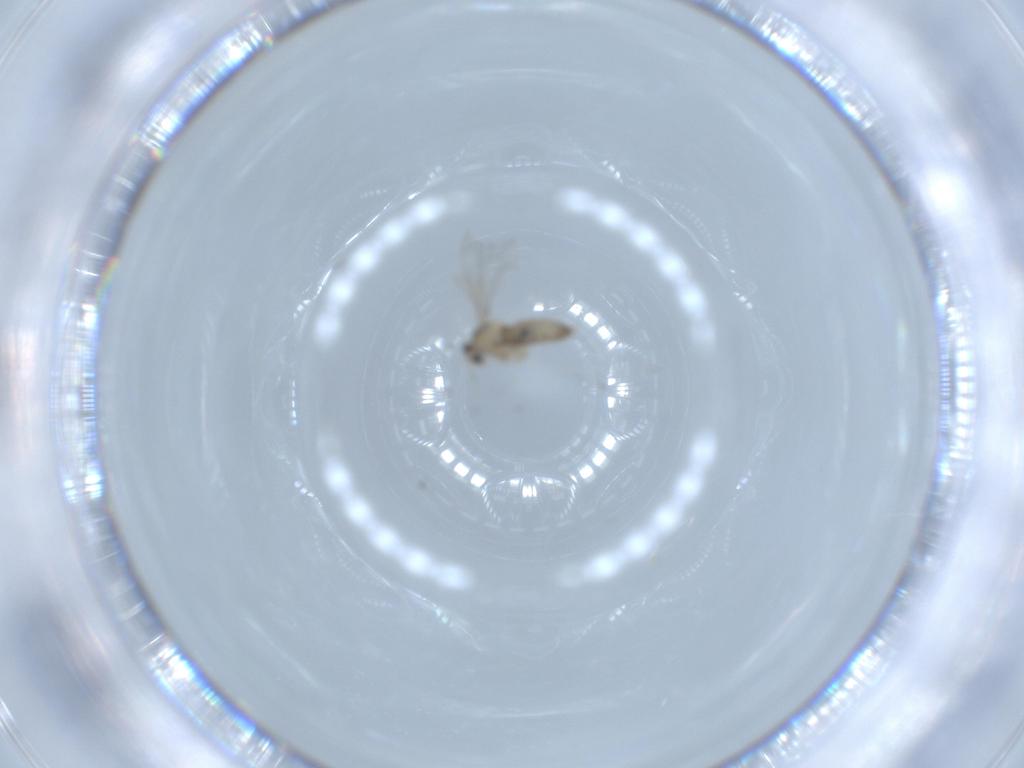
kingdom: Animalia
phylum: Arthropoda
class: Insecta
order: Diptera
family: Cecidomyiidae
